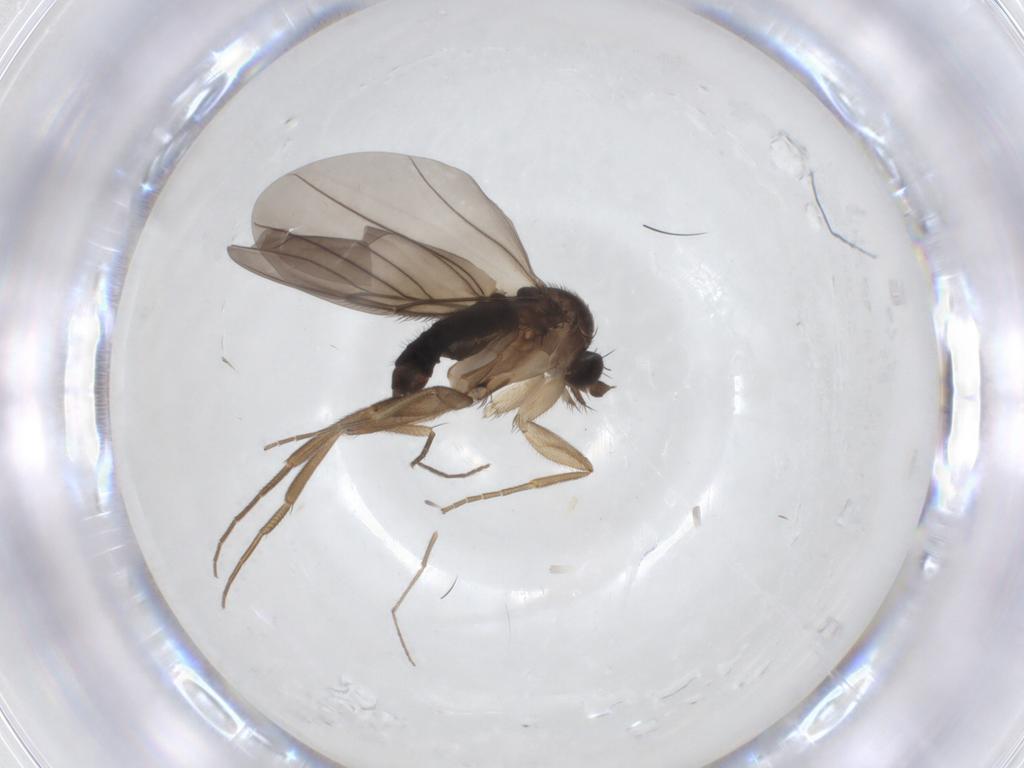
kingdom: Animalia
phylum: Arthropoda
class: Insecta
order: Diptera
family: Phoridae
